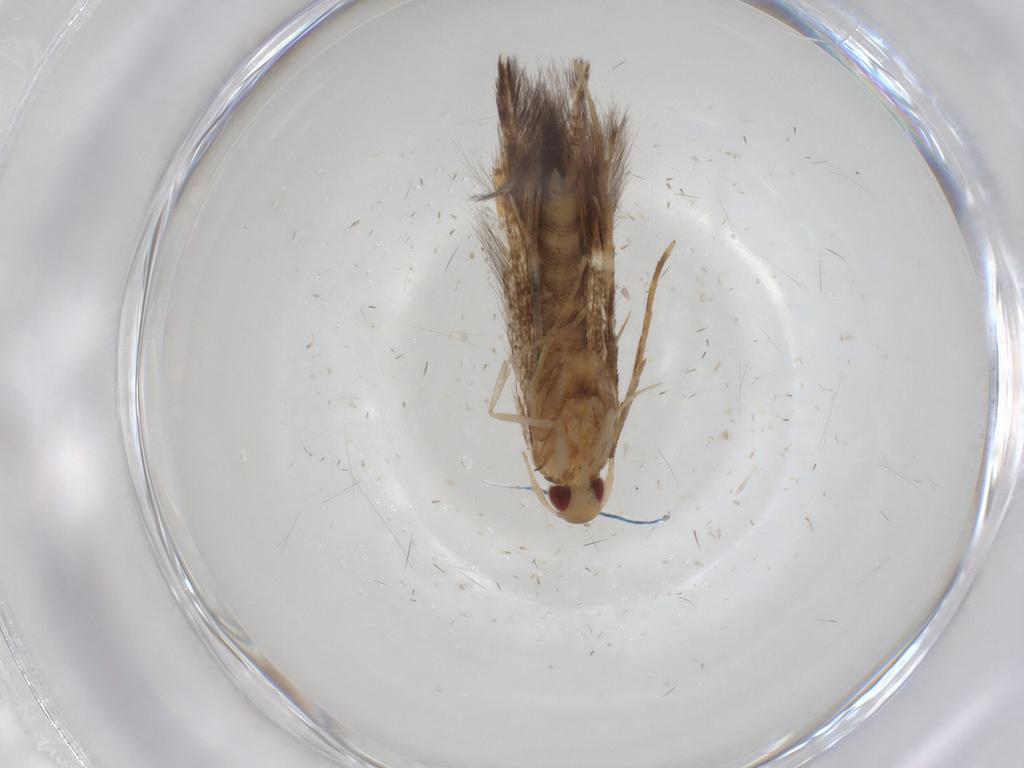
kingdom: Animalia
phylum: Arthropoda
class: Insecta
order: Lepidoptera
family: Cosmopterigidae
